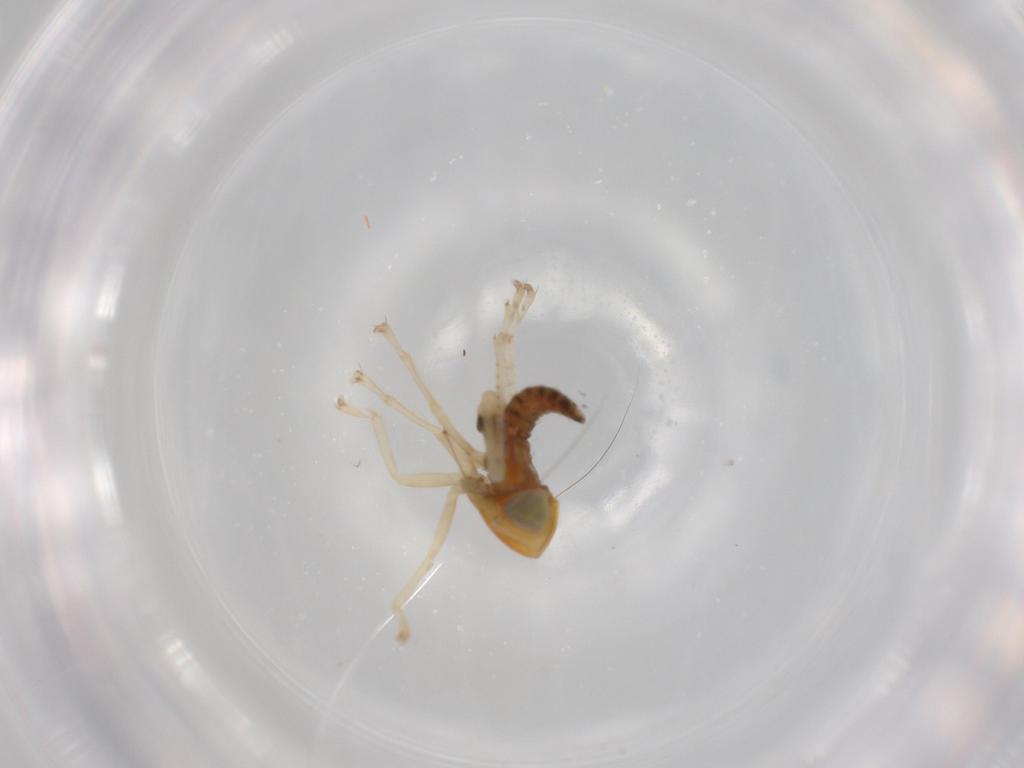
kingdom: Animalia
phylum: Arthropoda
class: Insecta
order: Hemiptera
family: Cicadellidae
